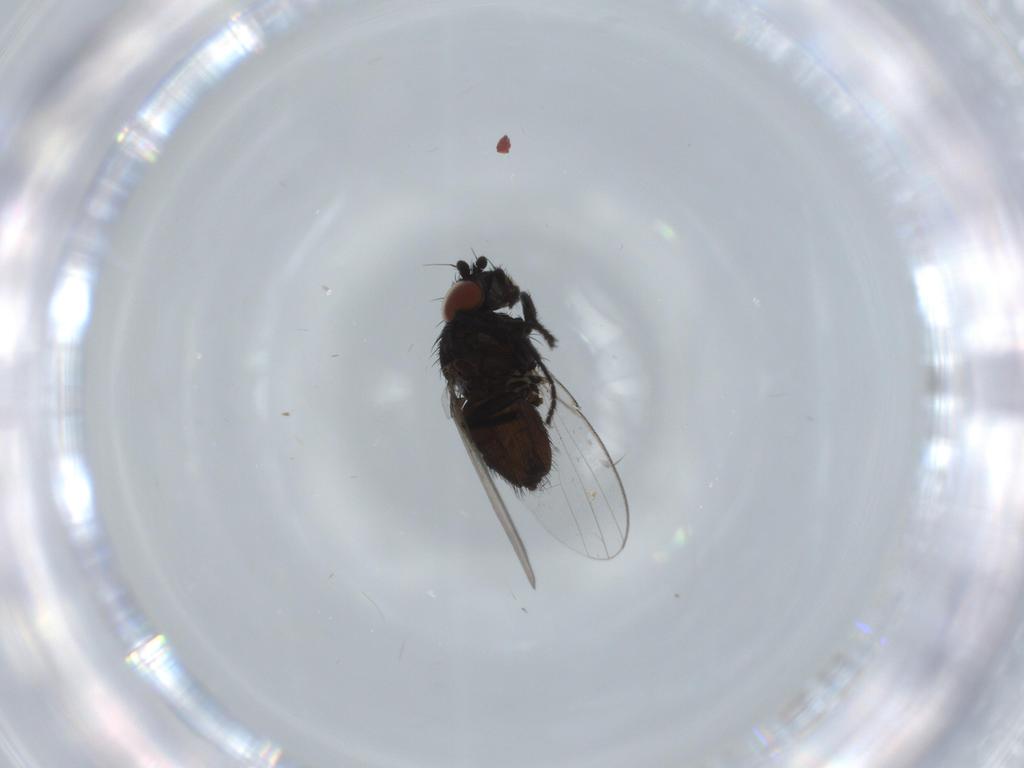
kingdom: Animalia
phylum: Arthropoda
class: Insecta
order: Diptera
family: Milichiidae
